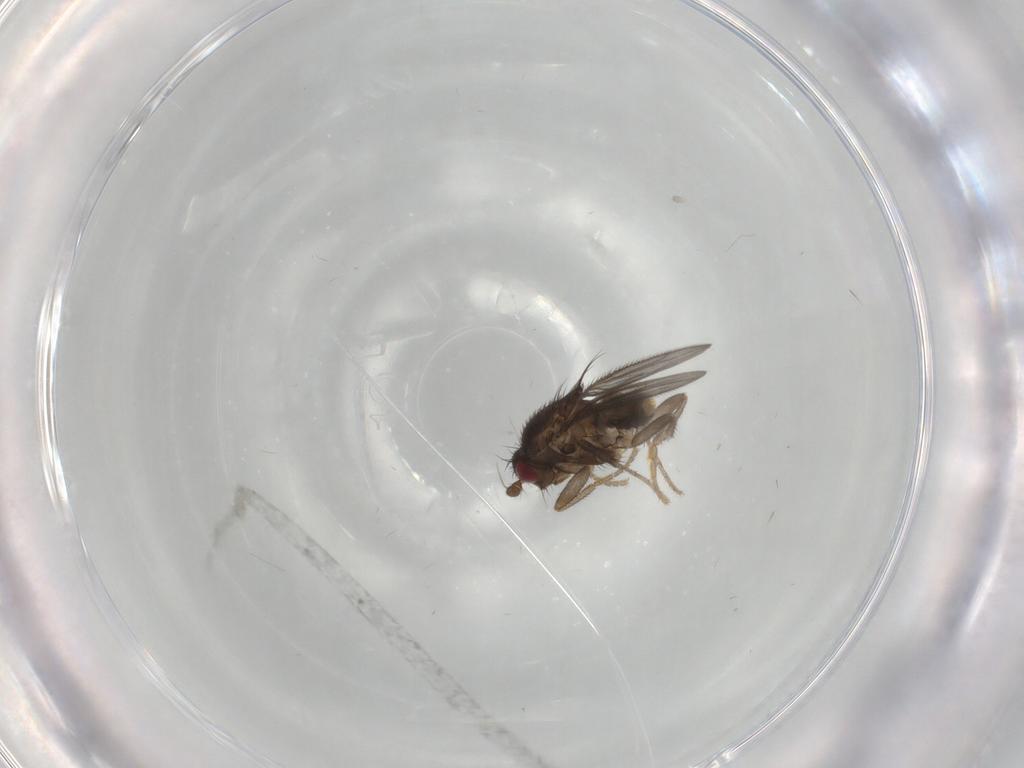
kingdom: Animalia
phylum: Arthropoda
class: Insecta
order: Diptera
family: Sphaeroceridae
